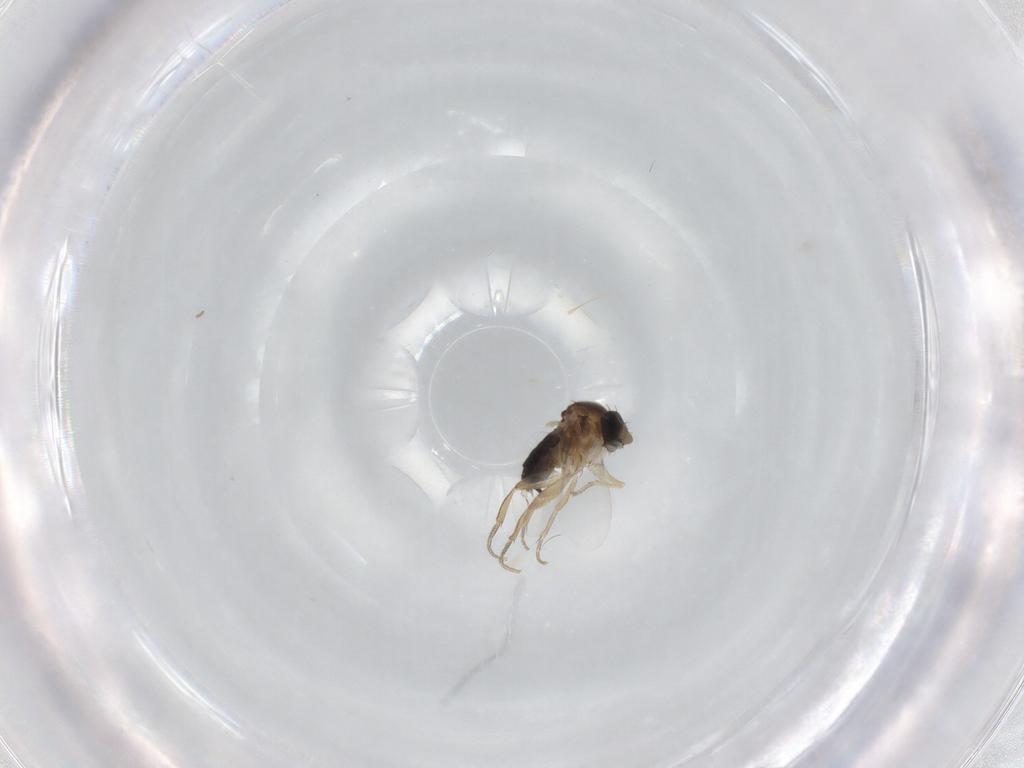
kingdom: Animalia
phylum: Arthropoda
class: Insecta
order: Diptera
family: Phoridae
